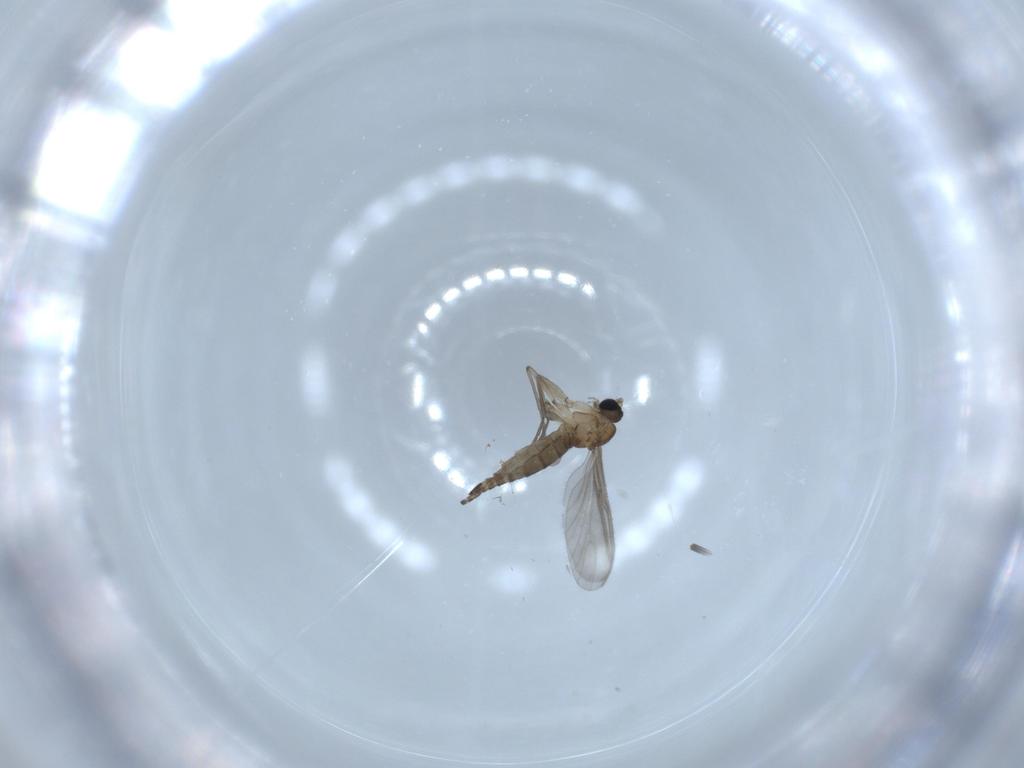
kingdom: Animalia
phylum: Arthropoda
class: Insecta
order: Diptera
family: Sciaridae
